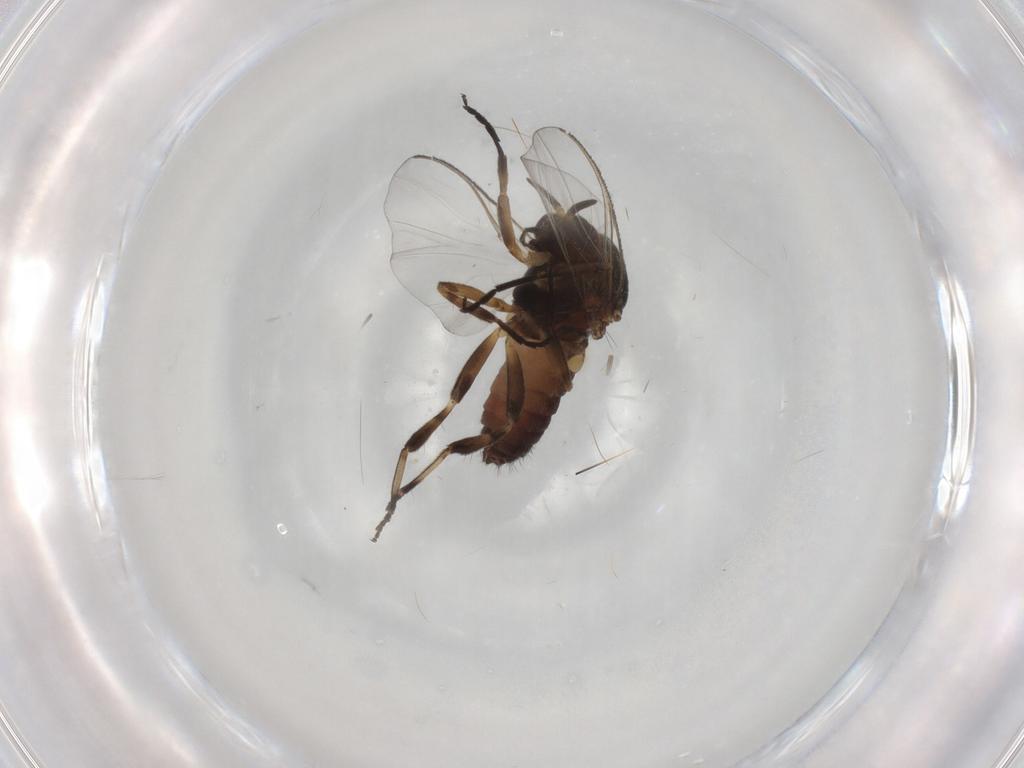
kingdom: Animalia
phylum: Arthropoda
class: Insecta
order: Diptera
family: Chironomidae
